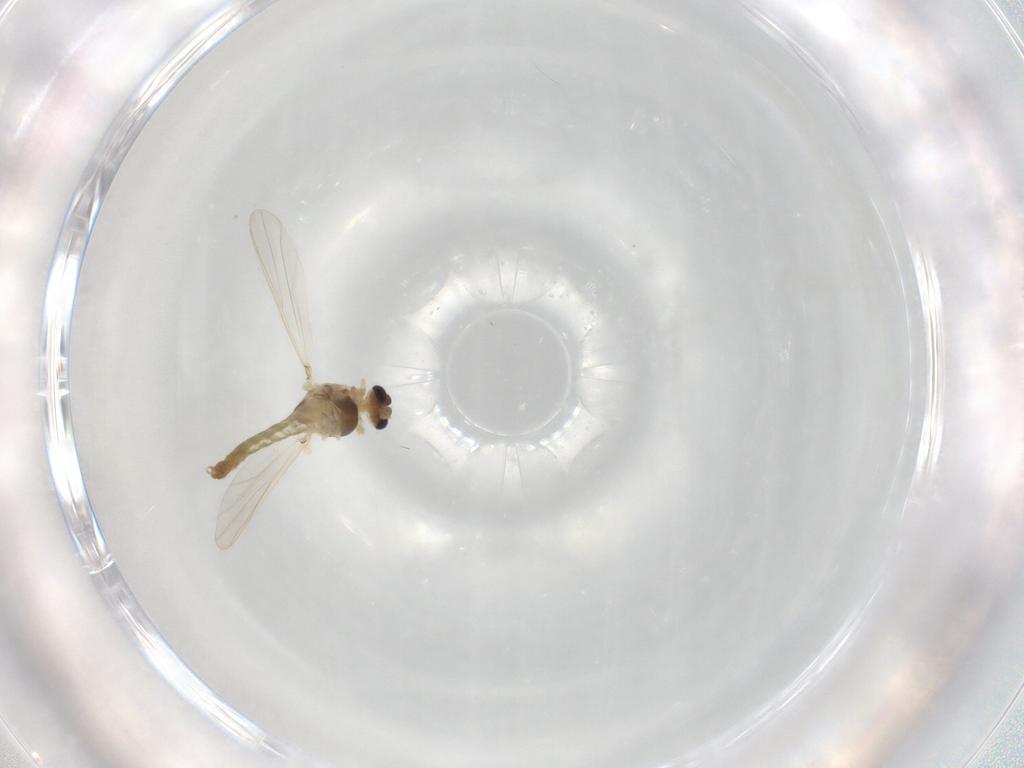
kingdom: Animalia
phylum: Arthropoda
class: Insecta
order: Diptera
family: Chironomidae
